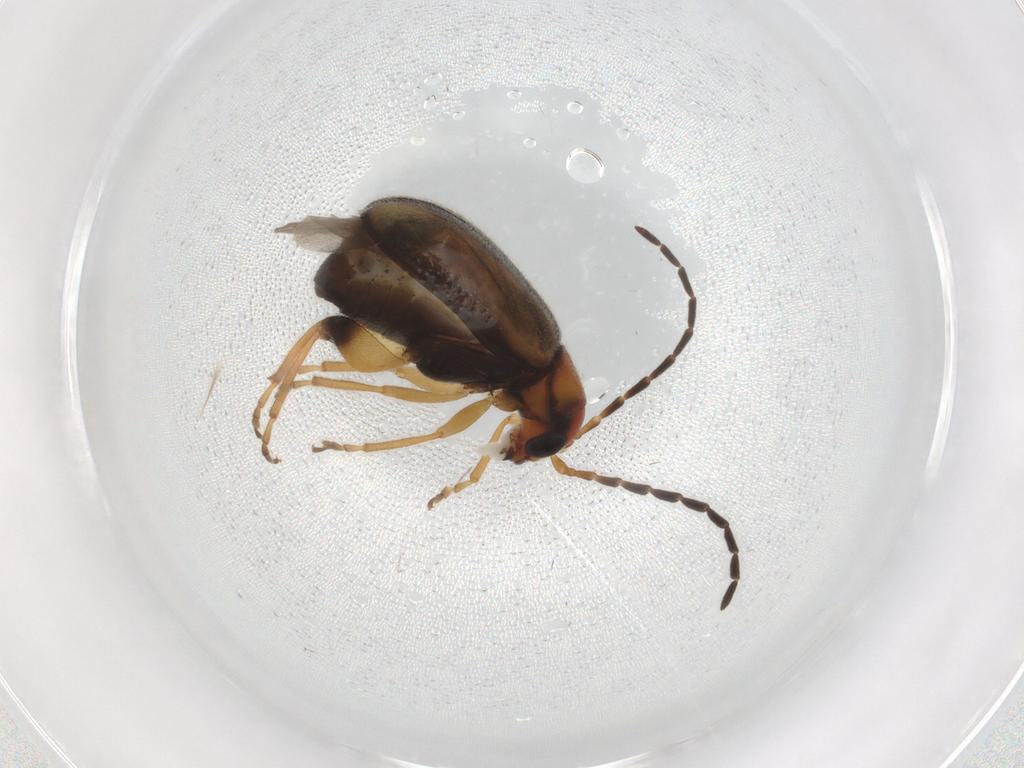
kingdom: Animalia
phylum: Arthropoda
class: Insecta
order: Coleoptera
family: Chrysomelidae
